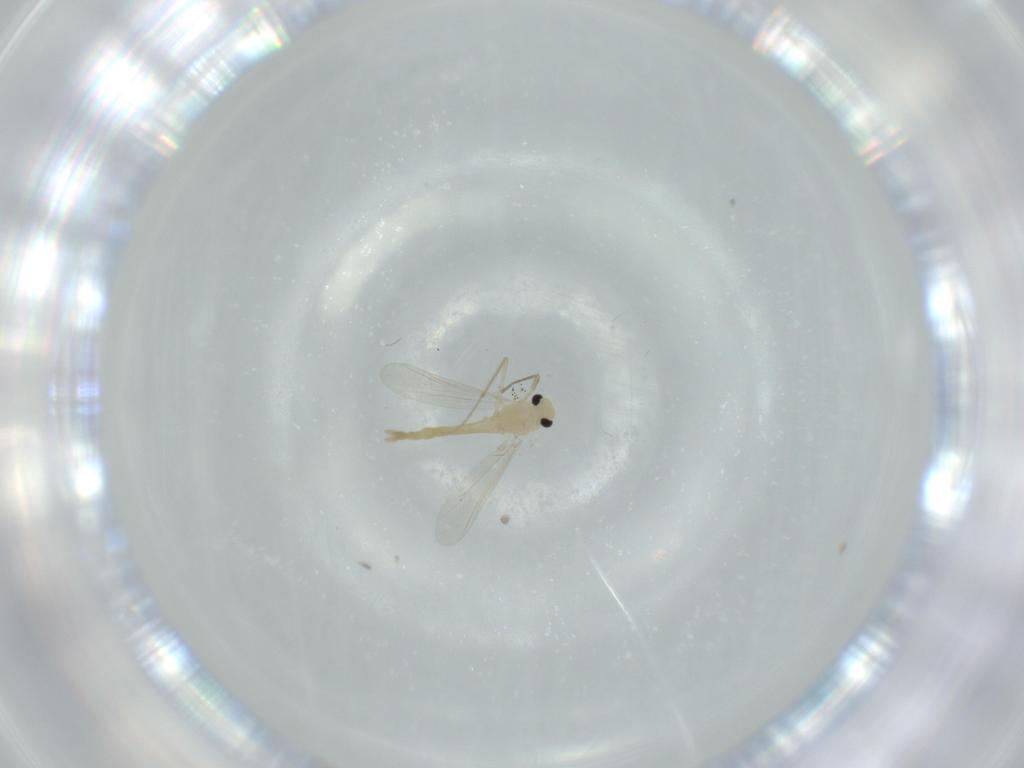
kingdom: Animalia
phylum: Arthropoda
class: Insecta
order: Diptera
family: Chironomidae
